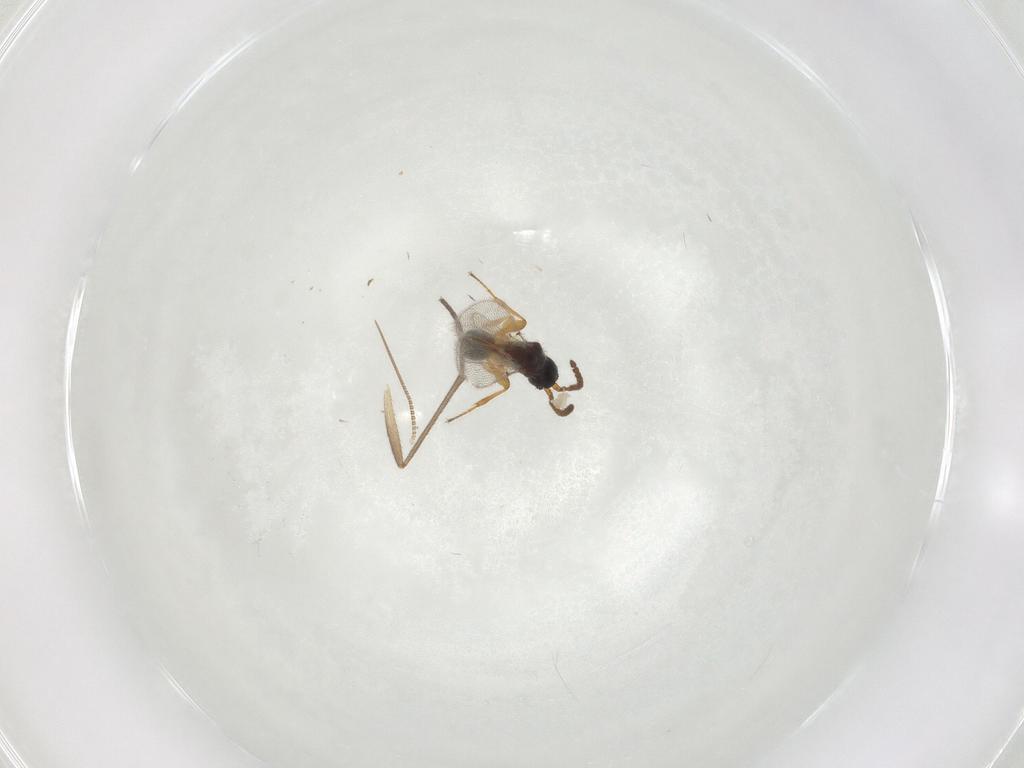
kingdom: Animalia
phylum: Arthropoda
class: Insecta
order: Hymenoptera
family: Diapriidae
